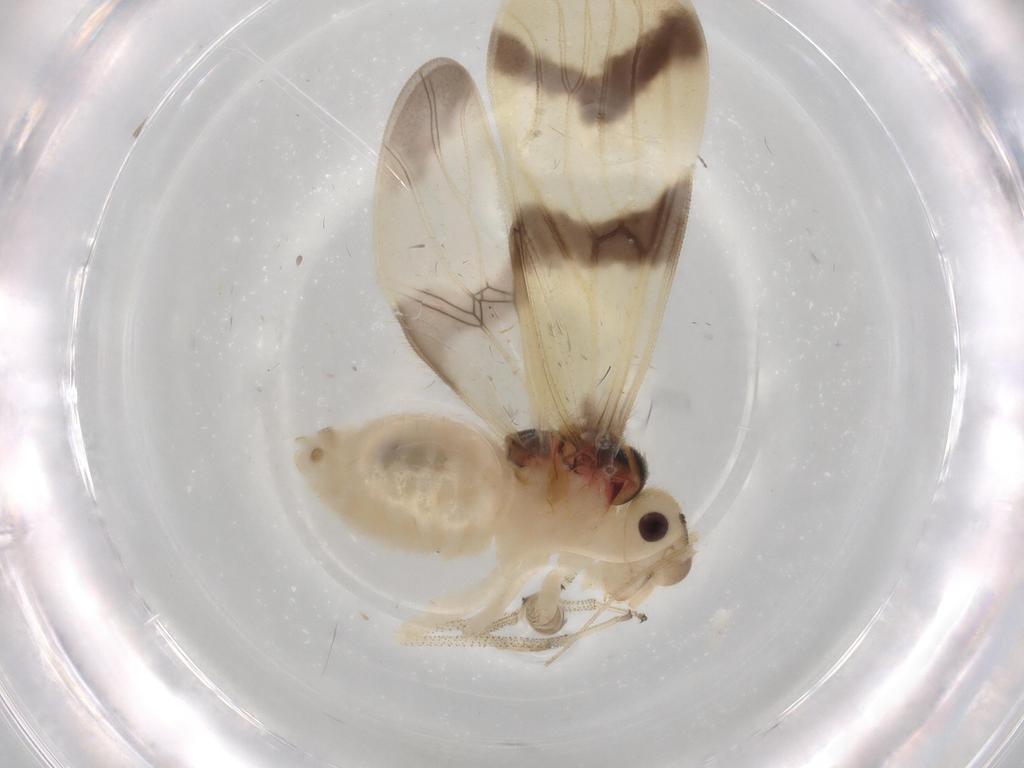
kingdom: Animalia
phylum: Arthropoda
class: Insecta
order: Psocodea
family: Amphipsocidae
